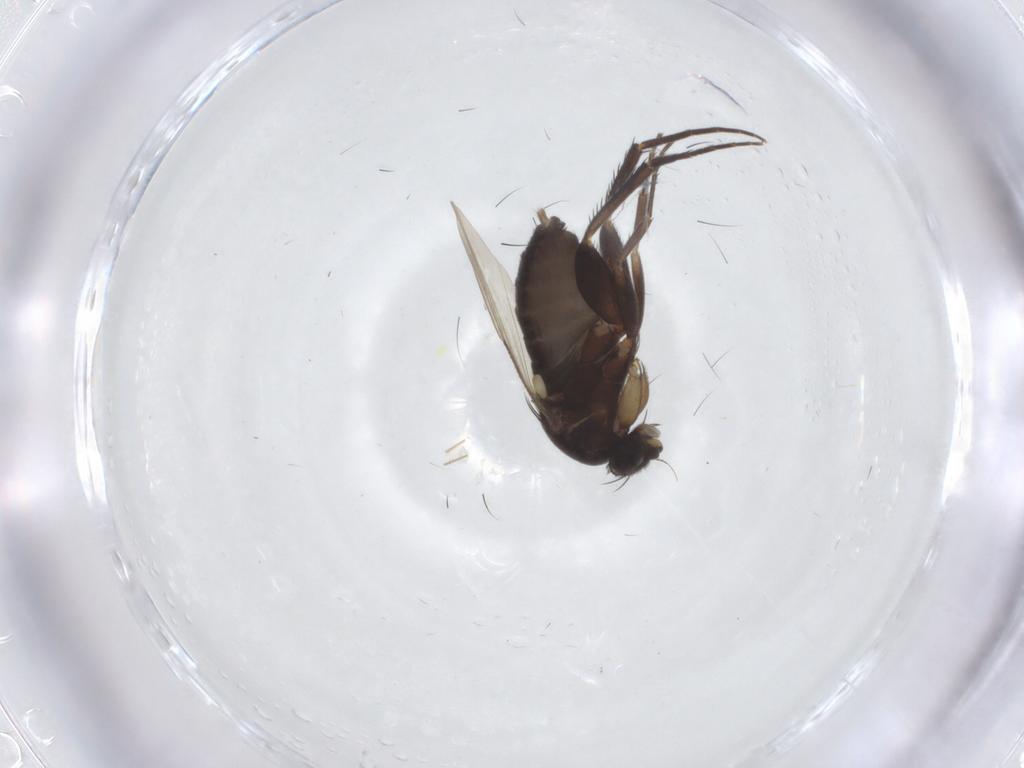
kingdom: Animalia
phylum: Arthropoda
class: Insecta
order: Diptera
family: Phoridae
